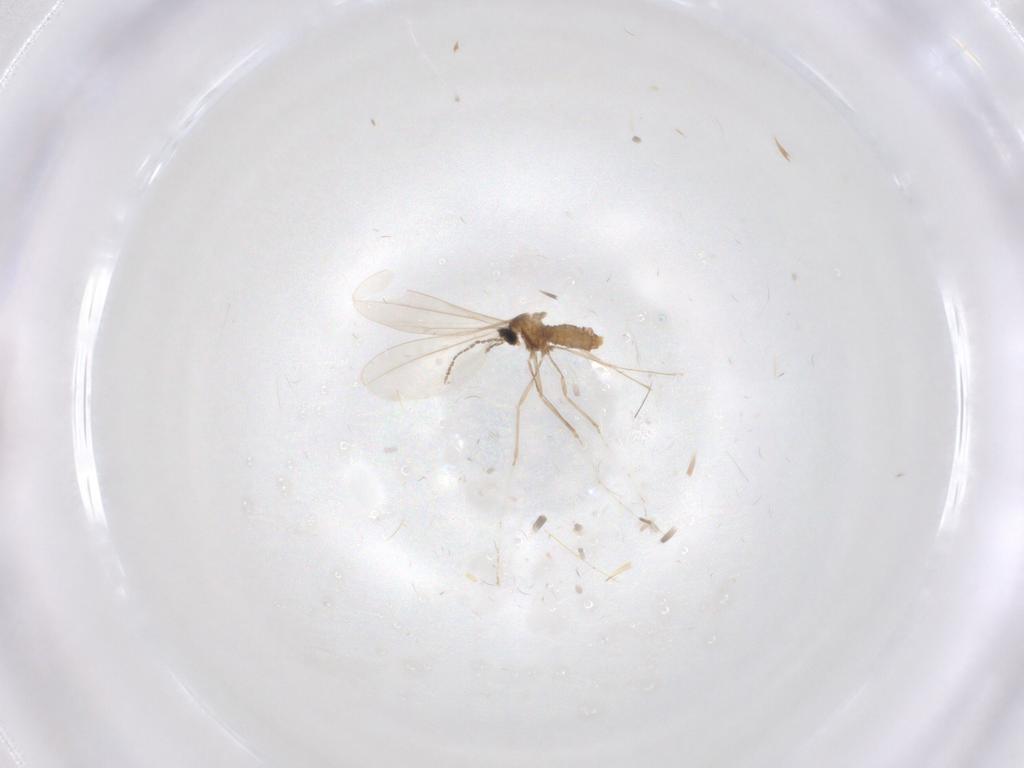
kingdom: Animalia
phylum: Arthropoda
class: Insecta
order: Diptera
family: Cecidomyiidae
